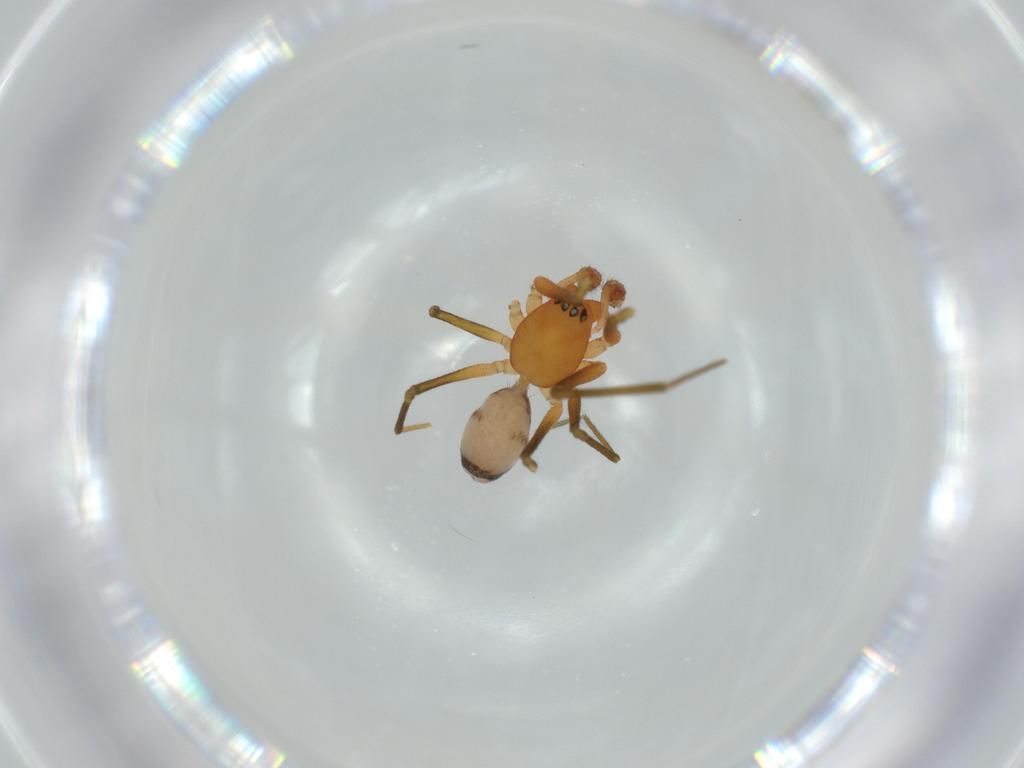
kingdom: Animalia
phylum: Arthropoda
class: Arachnida
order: Araneae
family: Linyphiidae
